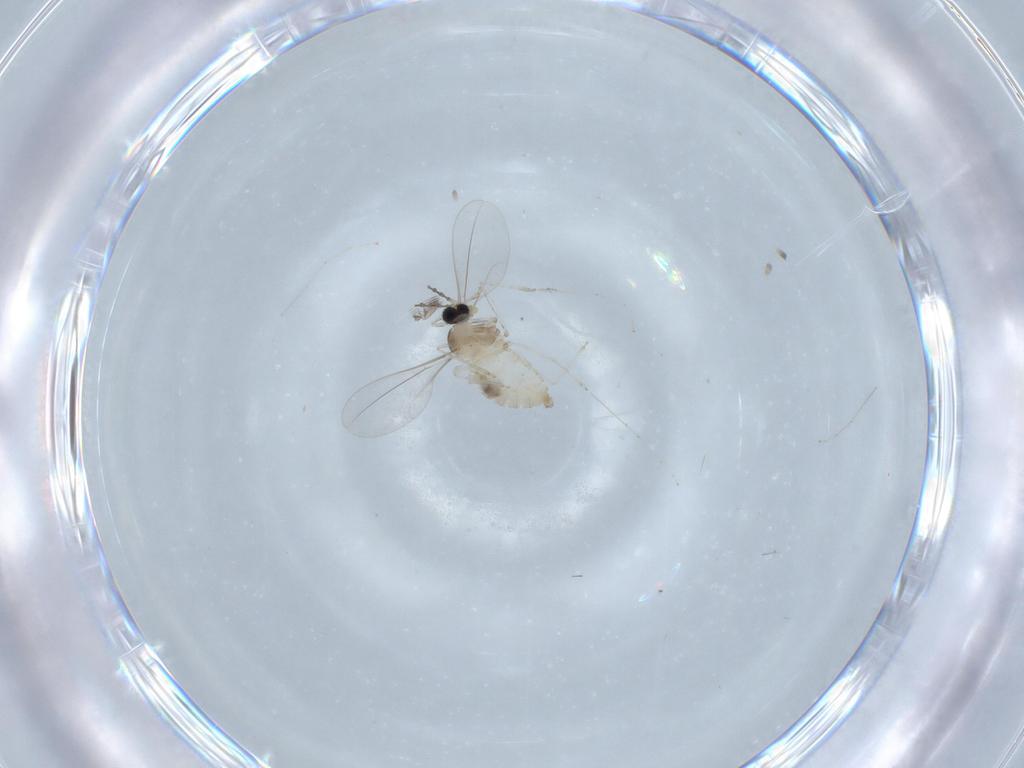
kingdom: Animalia
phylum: Arthropoda
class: Insecta
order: Diptera
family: Cecidomyiidae
